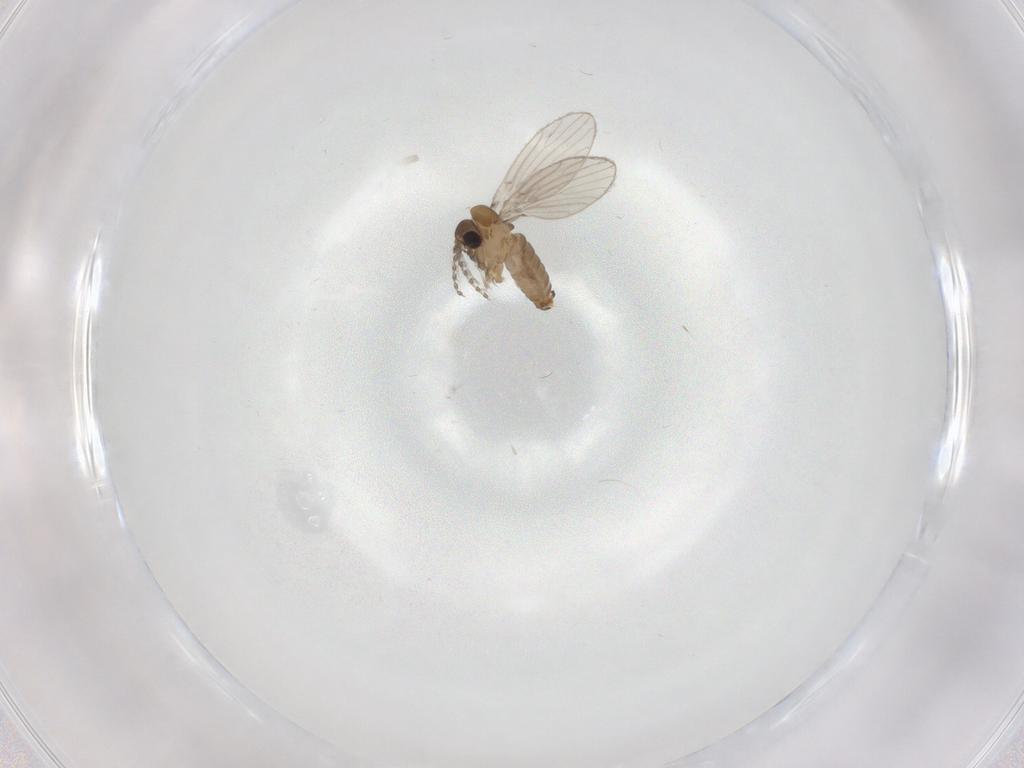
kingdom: Animalia
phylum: Arthropoda
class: Insecta
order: Diptera
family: Psychodidae
